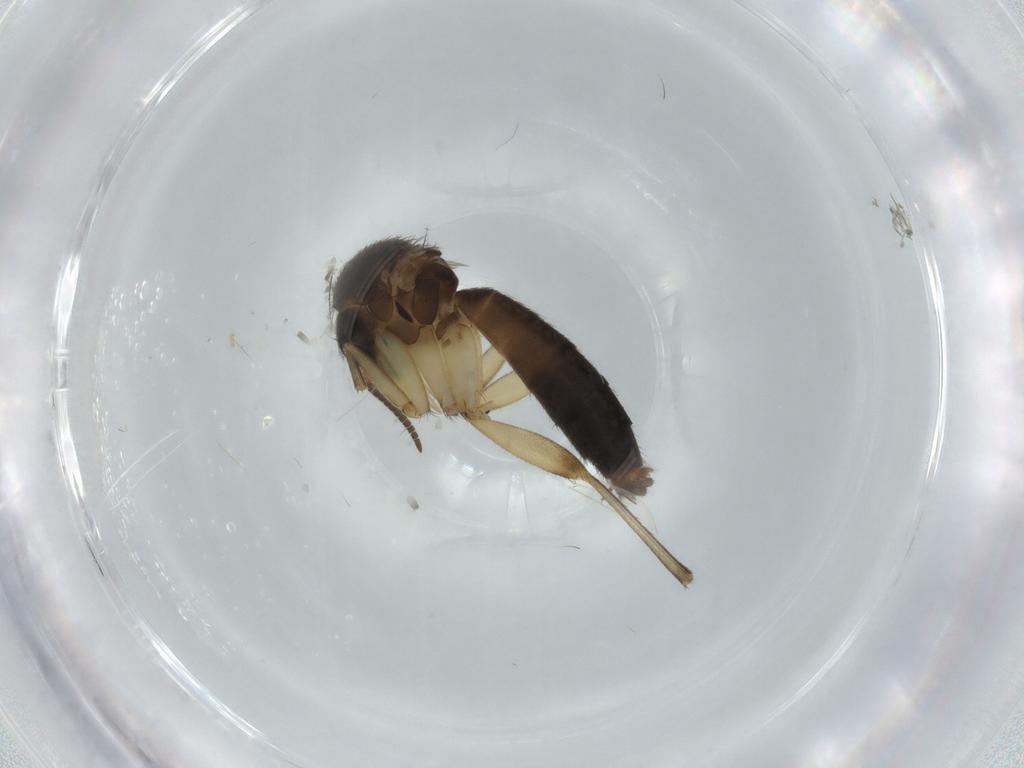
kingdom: Animalia
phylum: Arthropoda
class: Insecta
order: Diptera
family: Mycetophilidae
